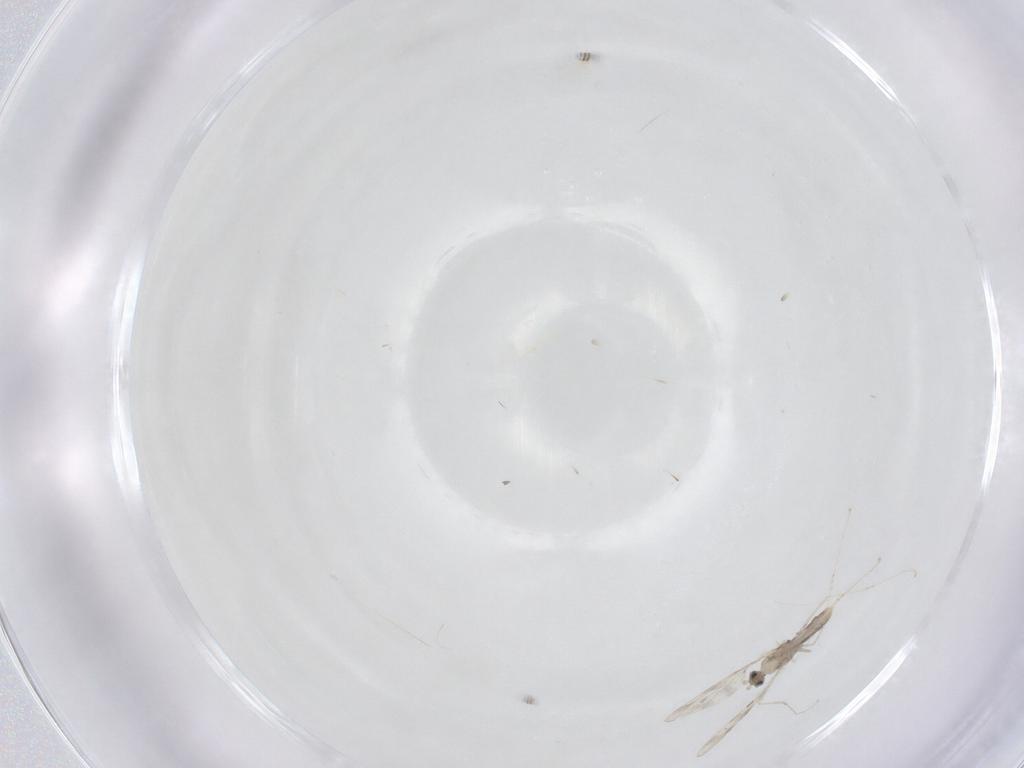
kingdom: Animalia
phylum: Arthropoda
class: Insecta
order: Diptera
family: Cecidomyiidae
